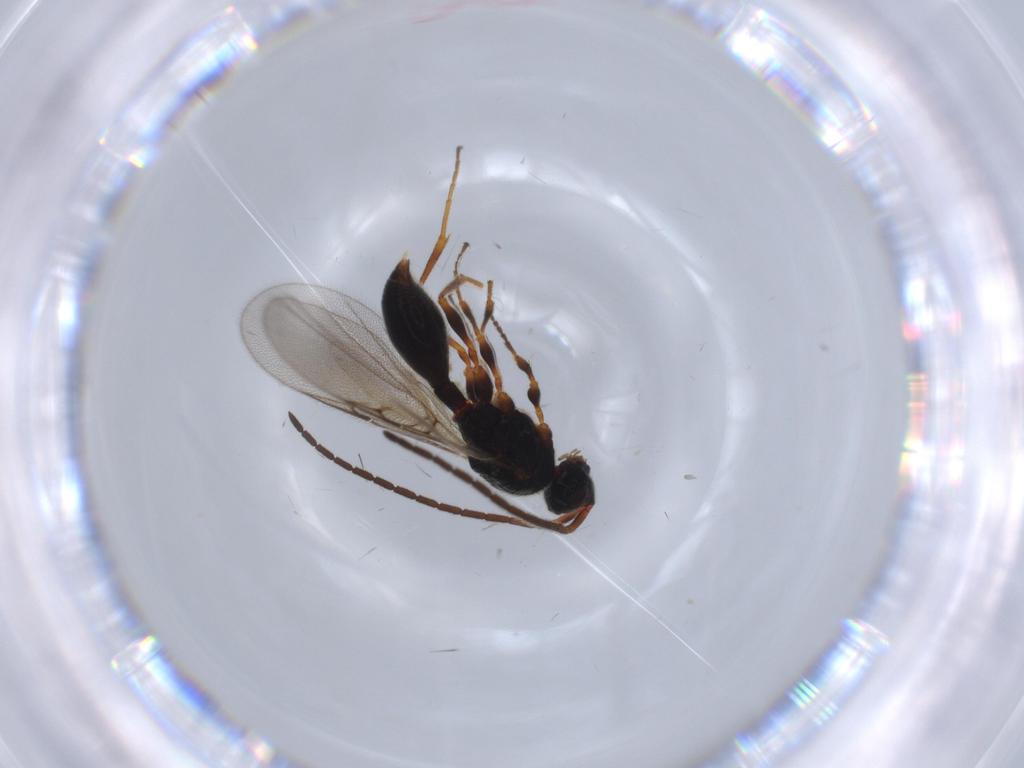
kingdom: Animalia
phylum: Arthropoda
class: Insecta
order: Hymenoptera
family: Diapriidae
